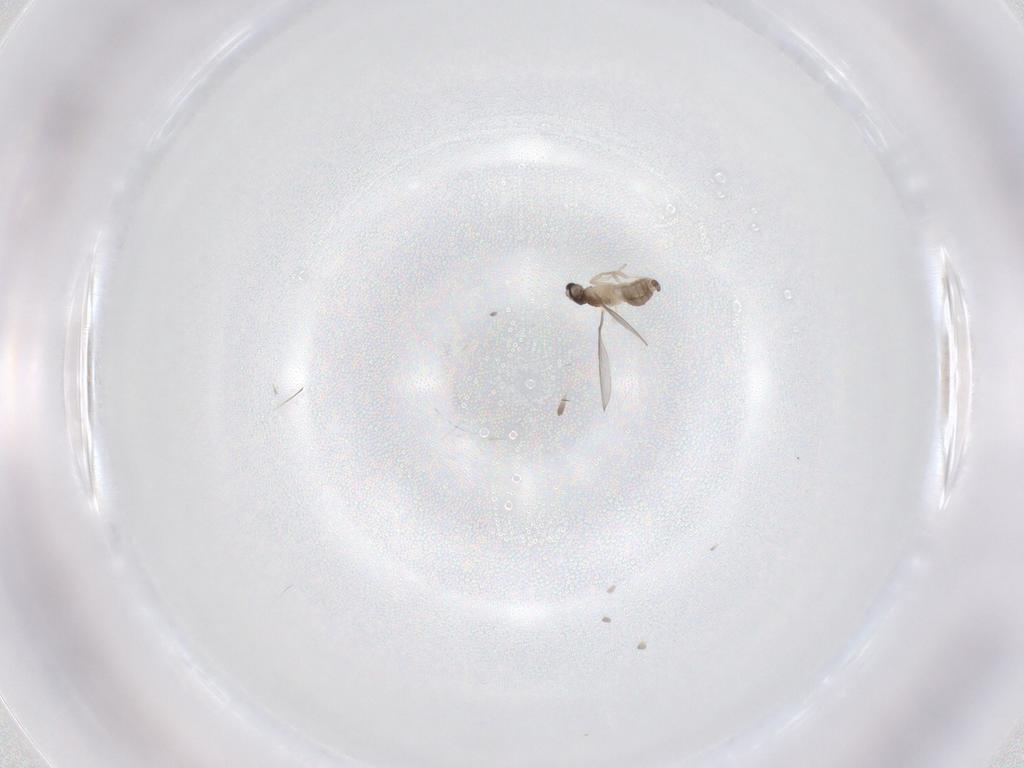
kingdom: Animalia
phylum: Arthropoda
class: Insecta
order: Diptera
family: Cecidomyiidae
